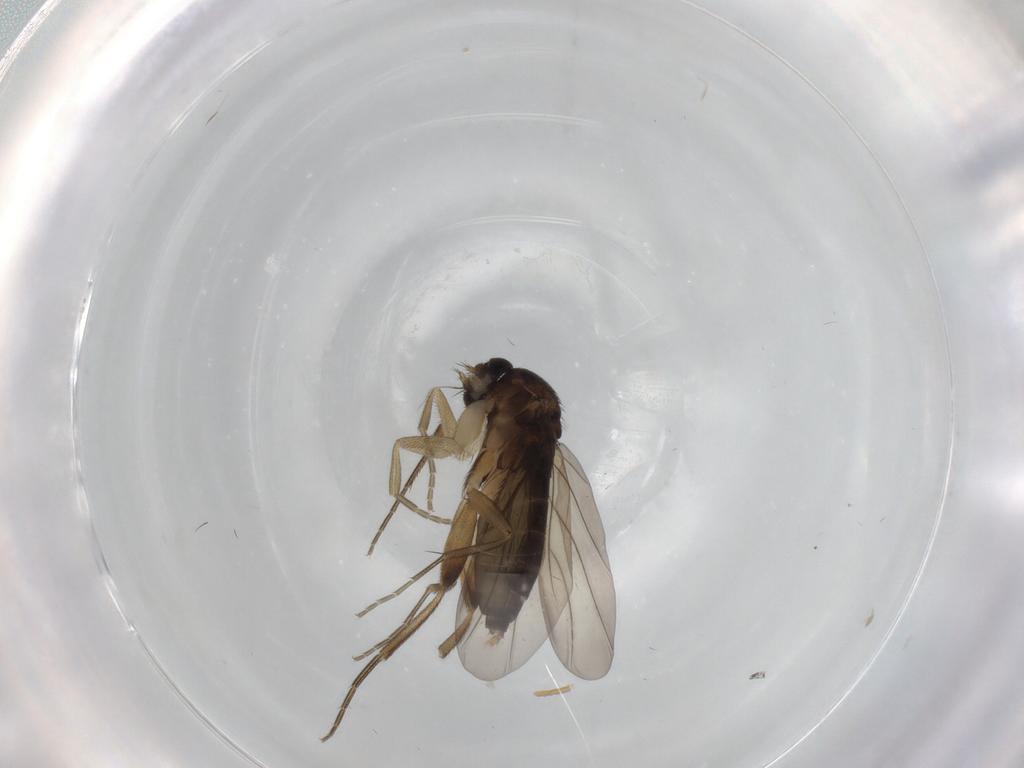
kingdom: Animalia
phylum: Arthropoda
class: Insecta
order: Diptera
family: Phoridae
